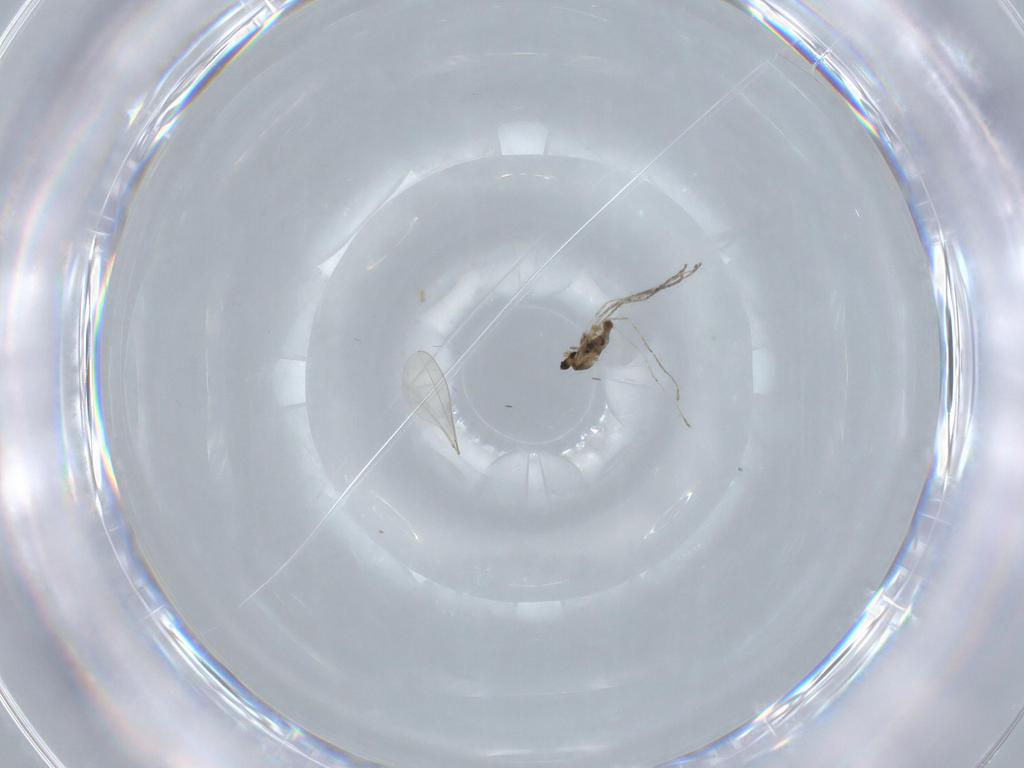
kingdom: Animalia
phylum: Arthropoda
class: Insecta
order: Diptera
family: Cecidomyiidae
